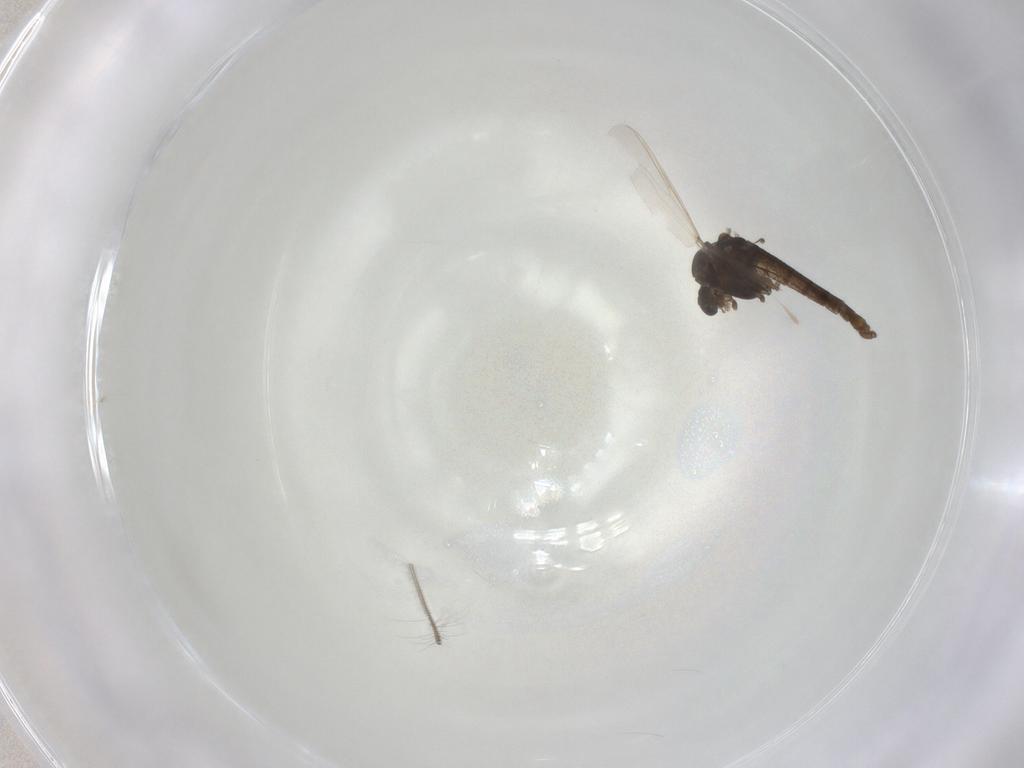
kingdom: Animalia
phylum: Arthropoda
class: Insecta
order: Diptera
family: Chironomidae
